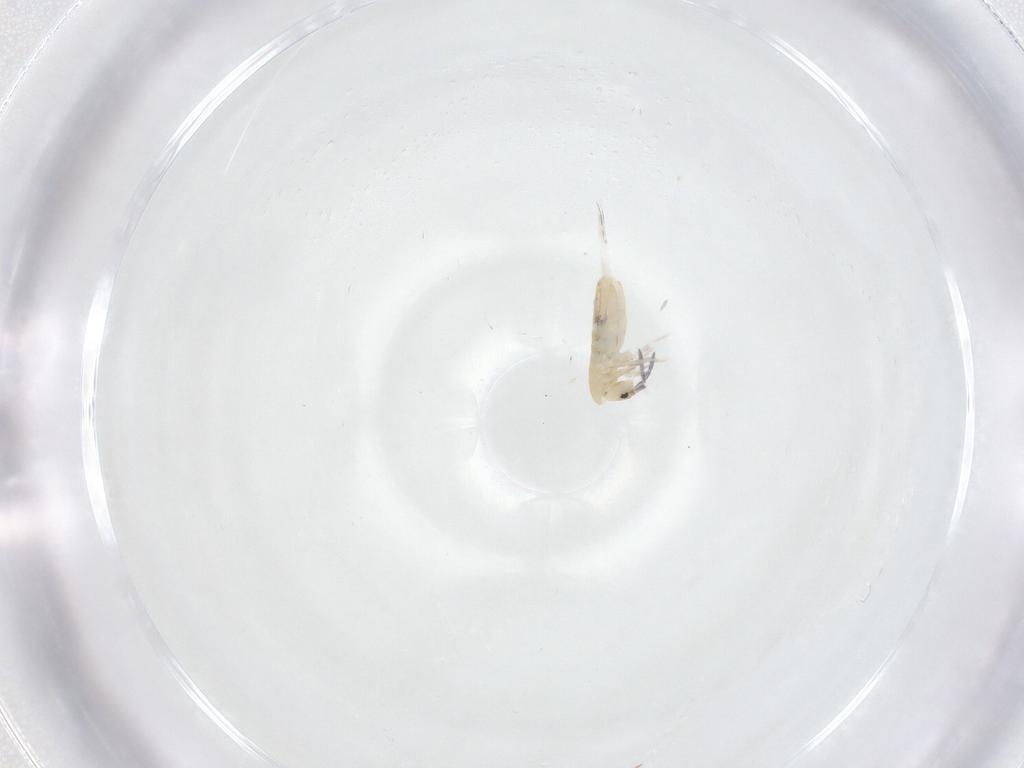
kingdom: Animalia
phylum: Arthropoda
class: Collembola
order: Entomobryomorpha
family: Entomobryidae
